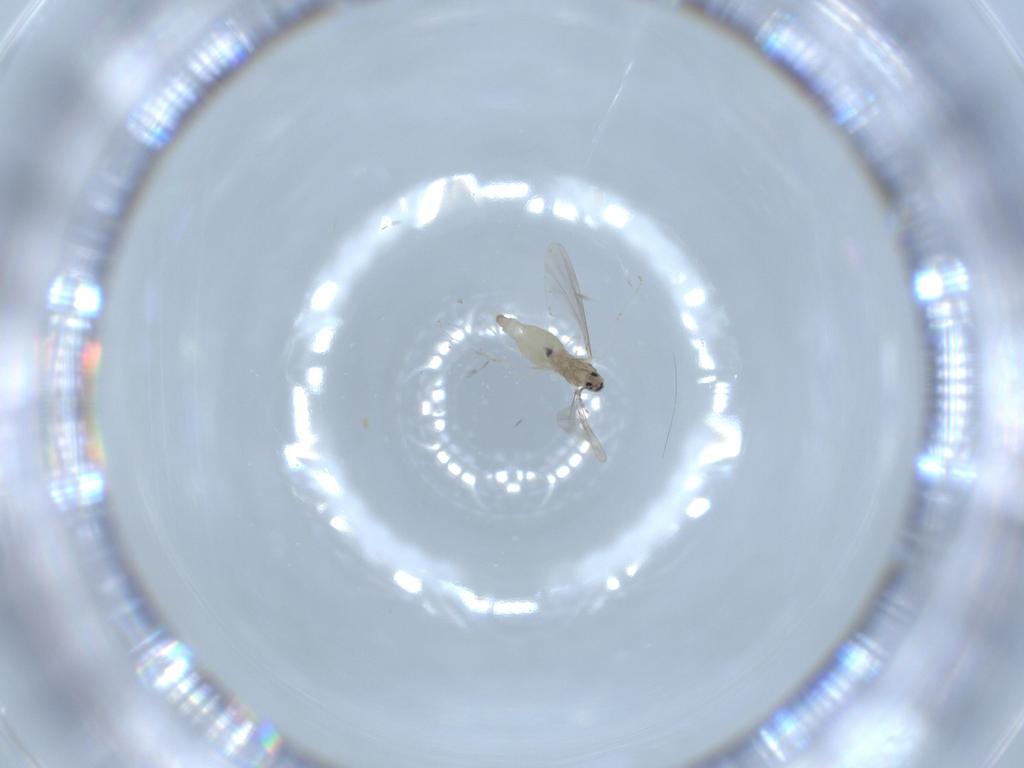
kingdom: Animalia
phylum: Arthropoda
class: Insecta
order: Diptera
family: Cecidomyiidae
